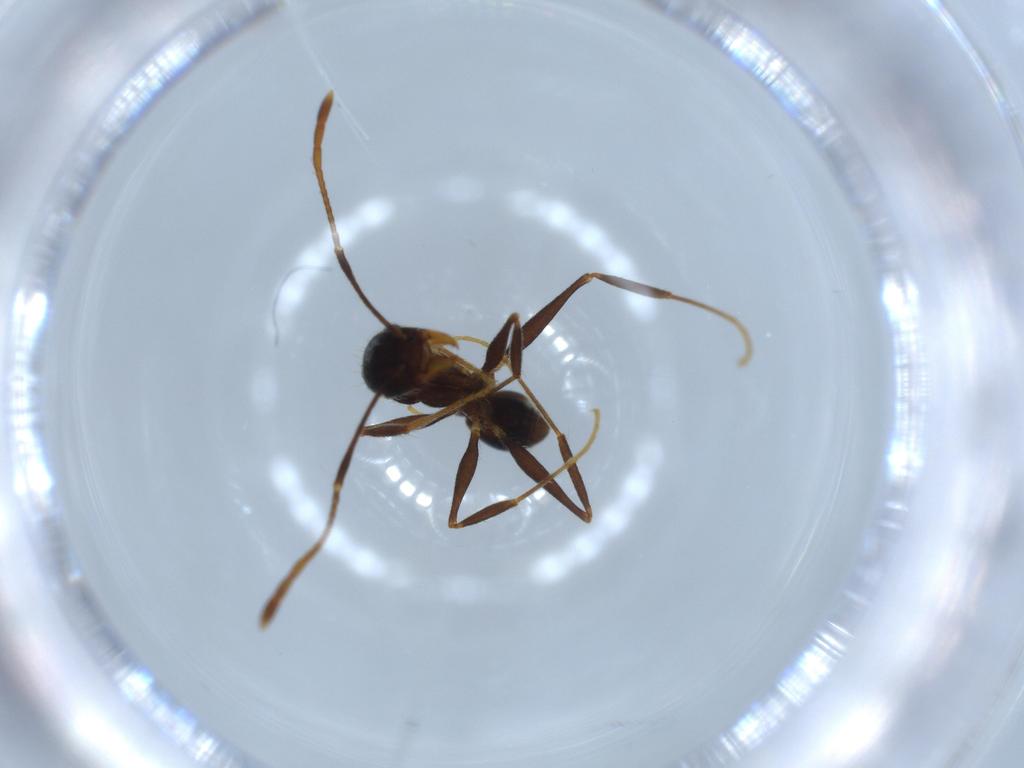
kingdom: Animalia
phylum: Arthropoda
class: Insecta
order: Hymenoptera
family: Formicidae
